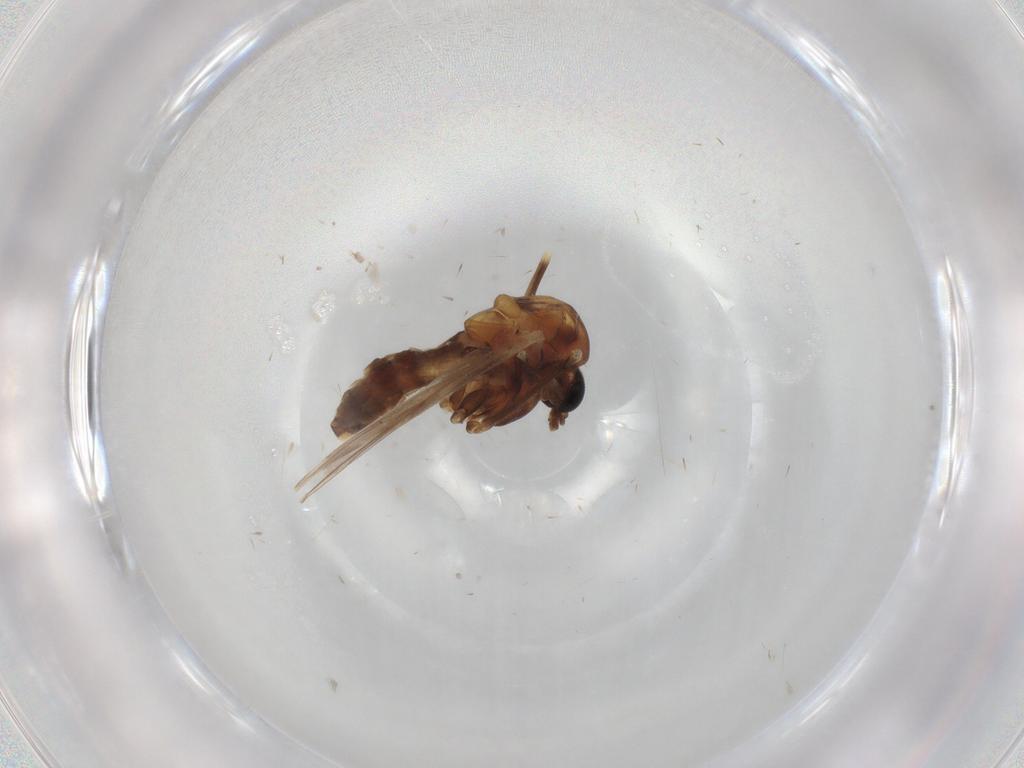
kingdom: Animalia
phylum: Arthropoda
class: Insecta
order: Diptera
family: Chironomidae
